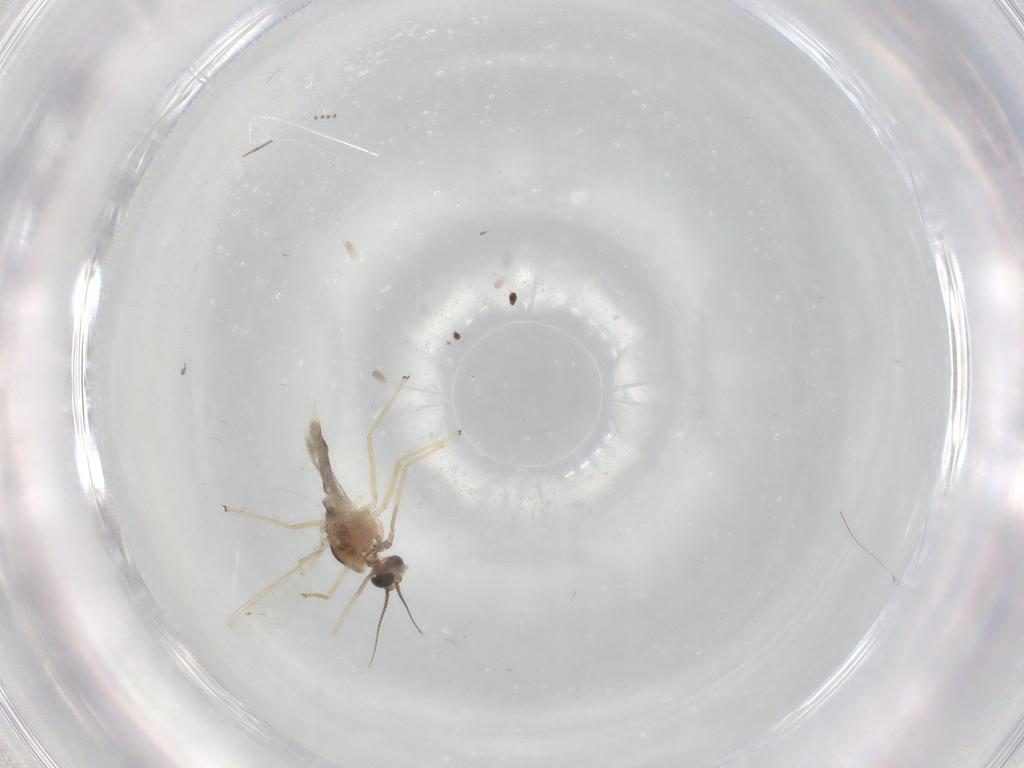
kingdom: Animalia
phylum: Arthropoda
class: Insecta
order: Diptera
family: Chironomidae
